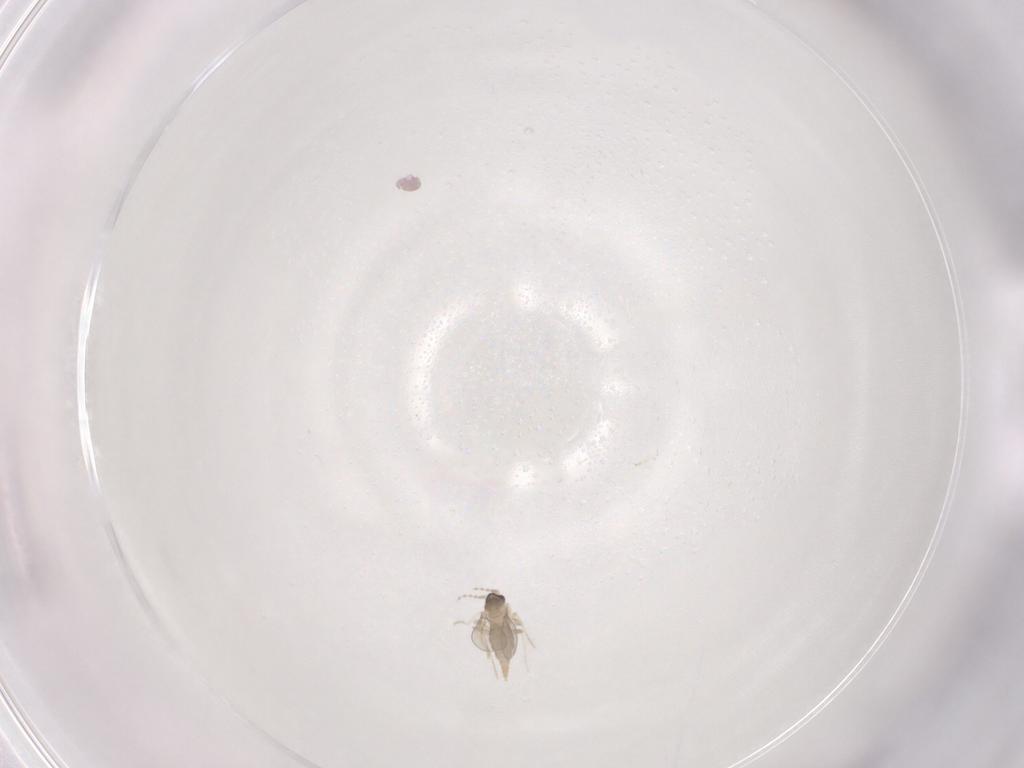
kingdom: Animalia
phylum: Arthropoda
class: Insecta
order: Diptera
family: Cecidomyiidae
